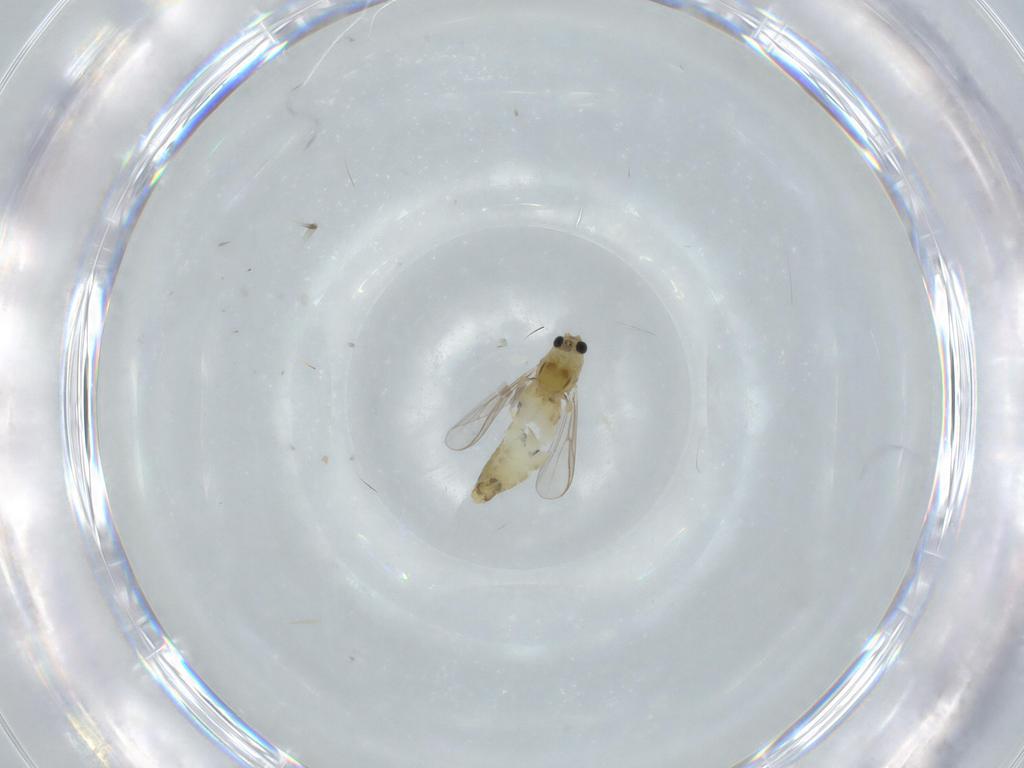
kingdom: Animalia
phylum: Arthropoda
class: Insecta
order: Diptera
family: Chironomidae
